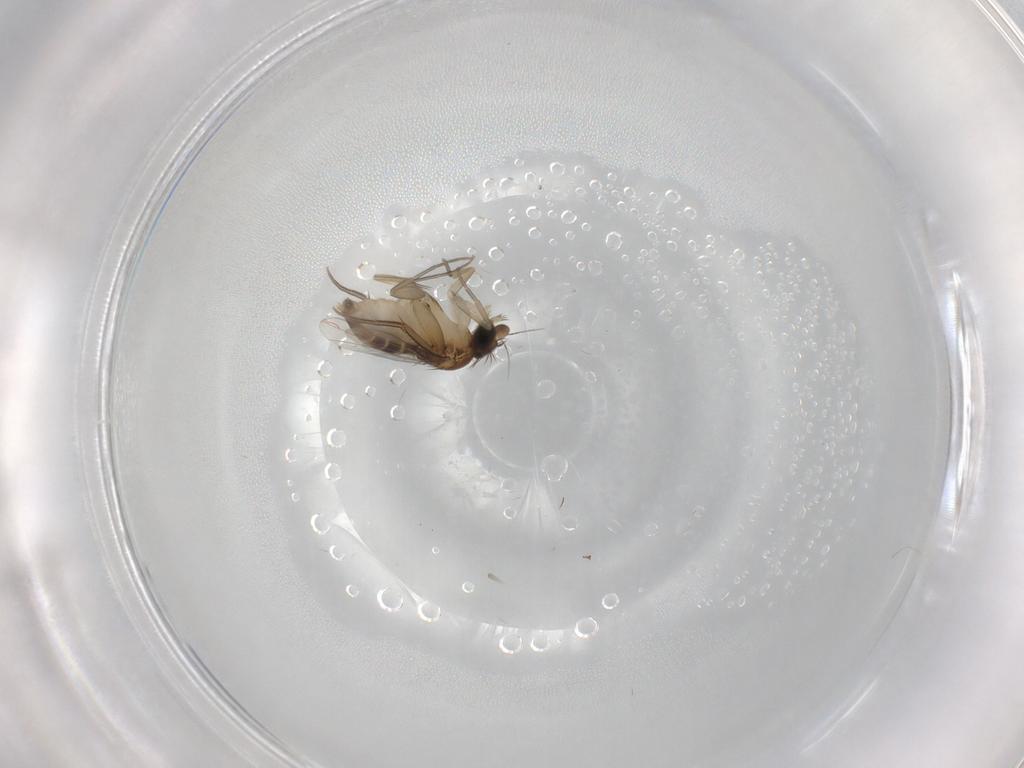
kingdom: Animalia
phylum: Arthropoda
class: Insecta
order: Diptera
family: Phoridae
